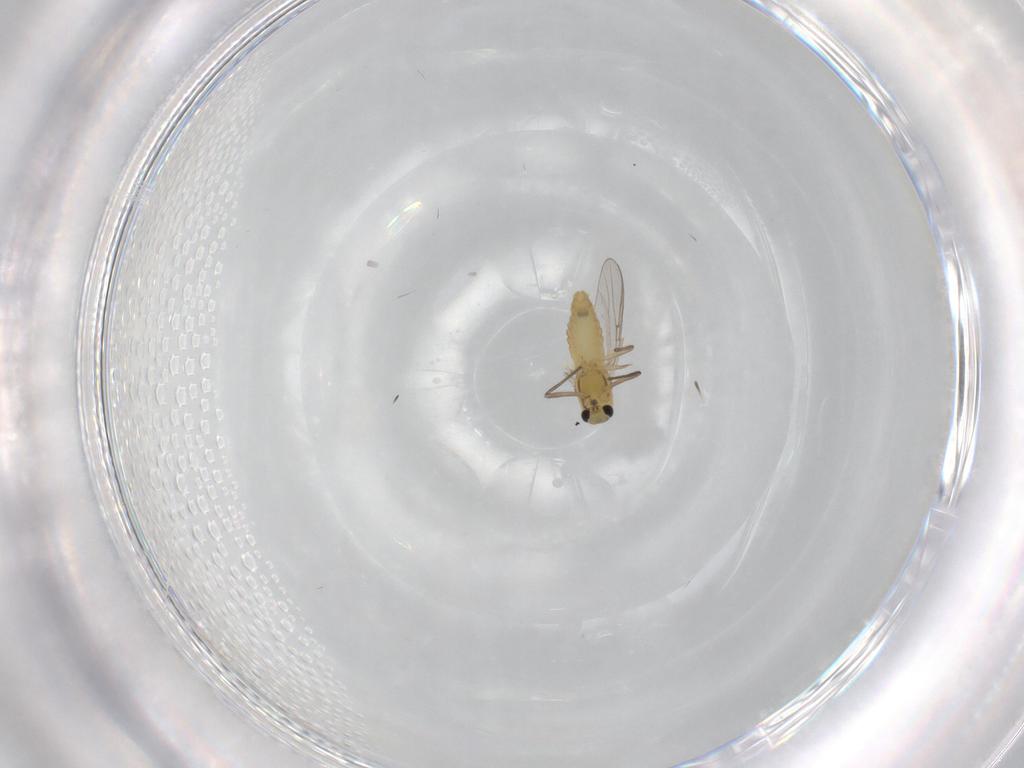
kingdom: Animalia
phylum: Arthropoda
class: Insecta
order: Diptera
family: Chironomidae
